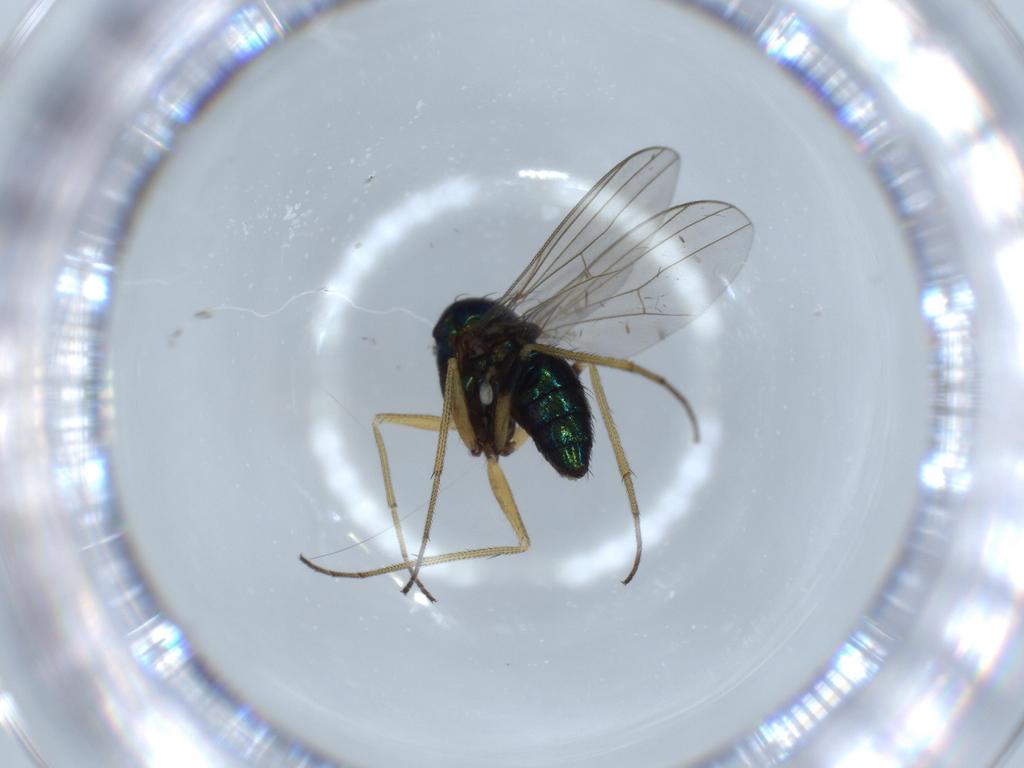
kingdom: Animalia
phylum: Arthropoda
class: Insecta
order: Diptera
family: Dolichopodidae
